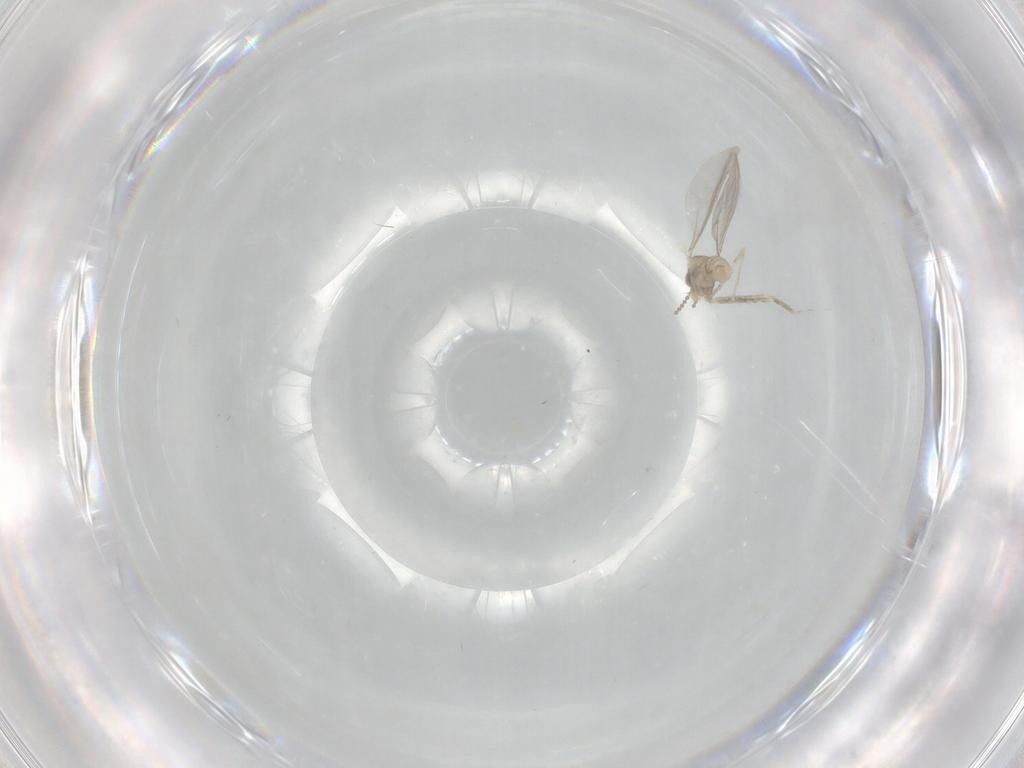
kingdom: Animalia
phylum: Arthropoda
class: Insecta
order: Diptera
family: Cecidomyiidae
